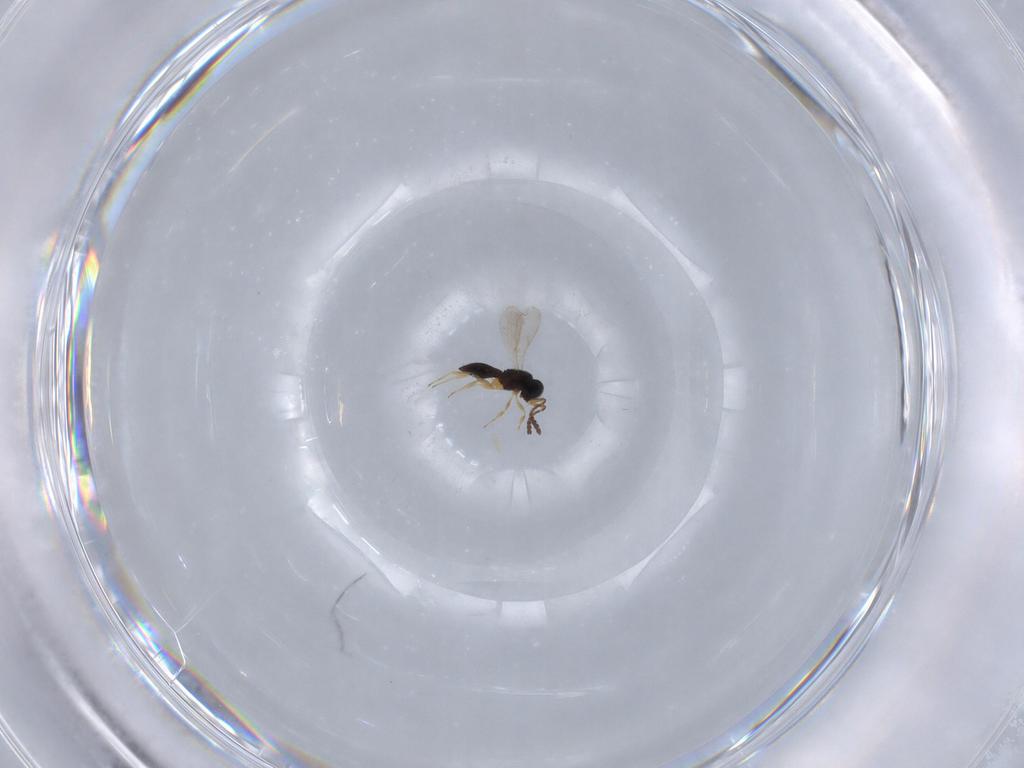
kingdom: Animalia
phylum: Arthropoda
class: Insecta
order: Hymenoptera
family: Scelionidae
